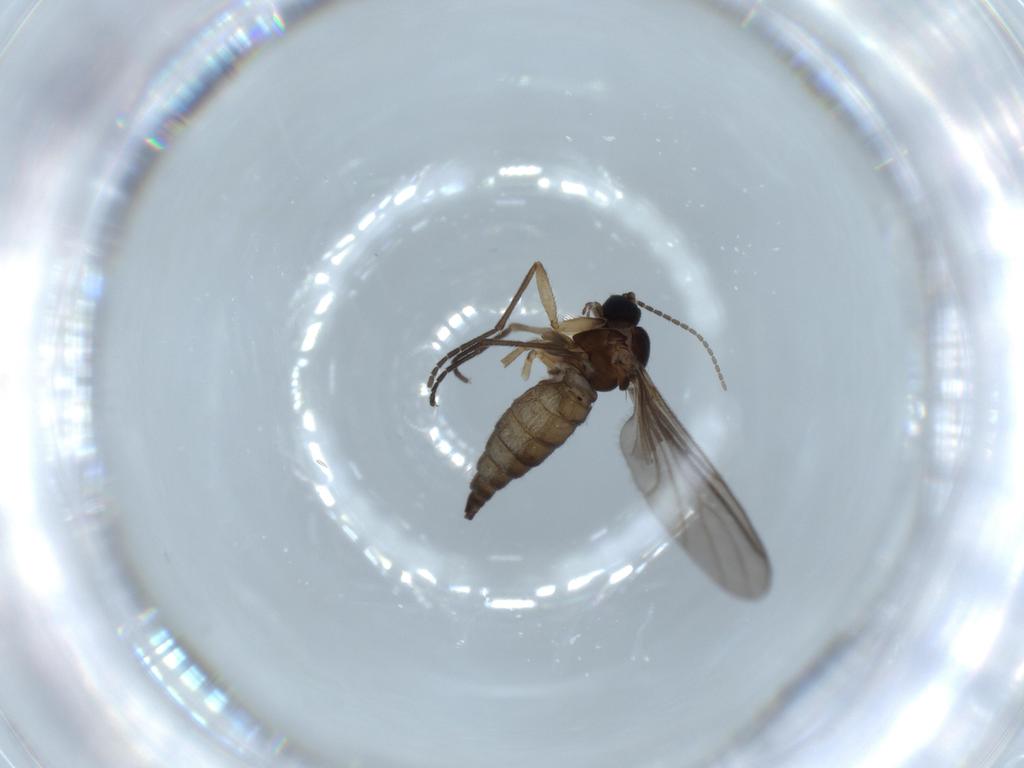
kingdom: Animalia
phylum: Arthropoda
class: Insecta
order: Diptera
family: Sciaridae
